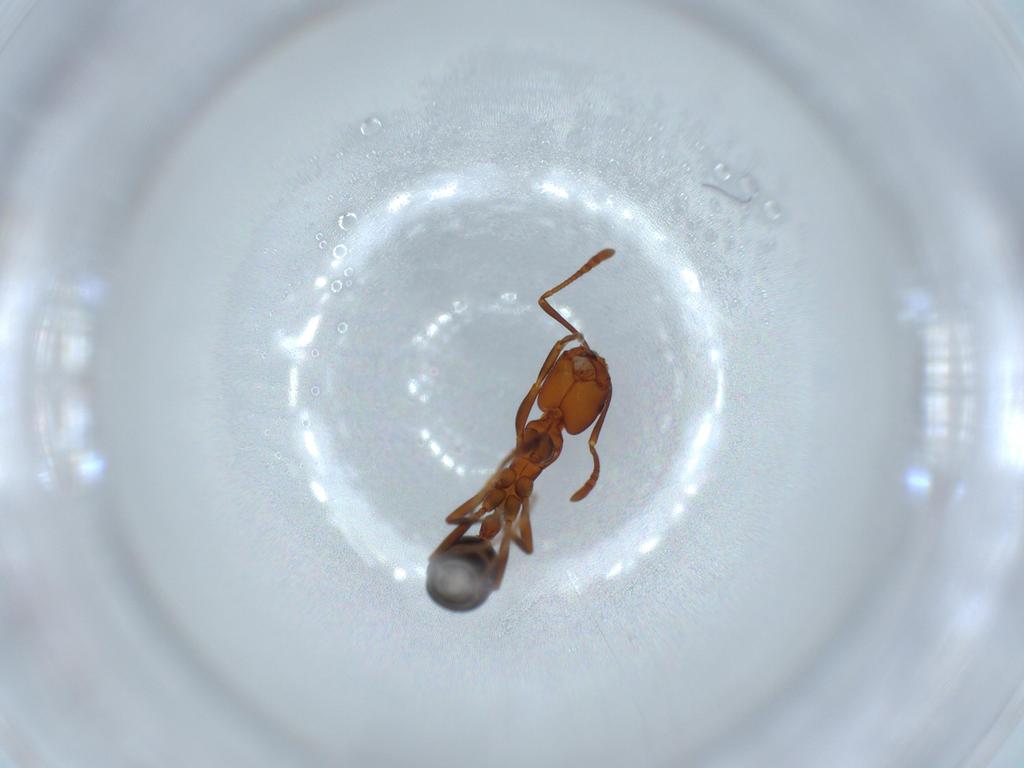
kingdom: Animalia
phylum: Arthropoda
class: Insecta
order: Hymenoptera
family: Formicidae
